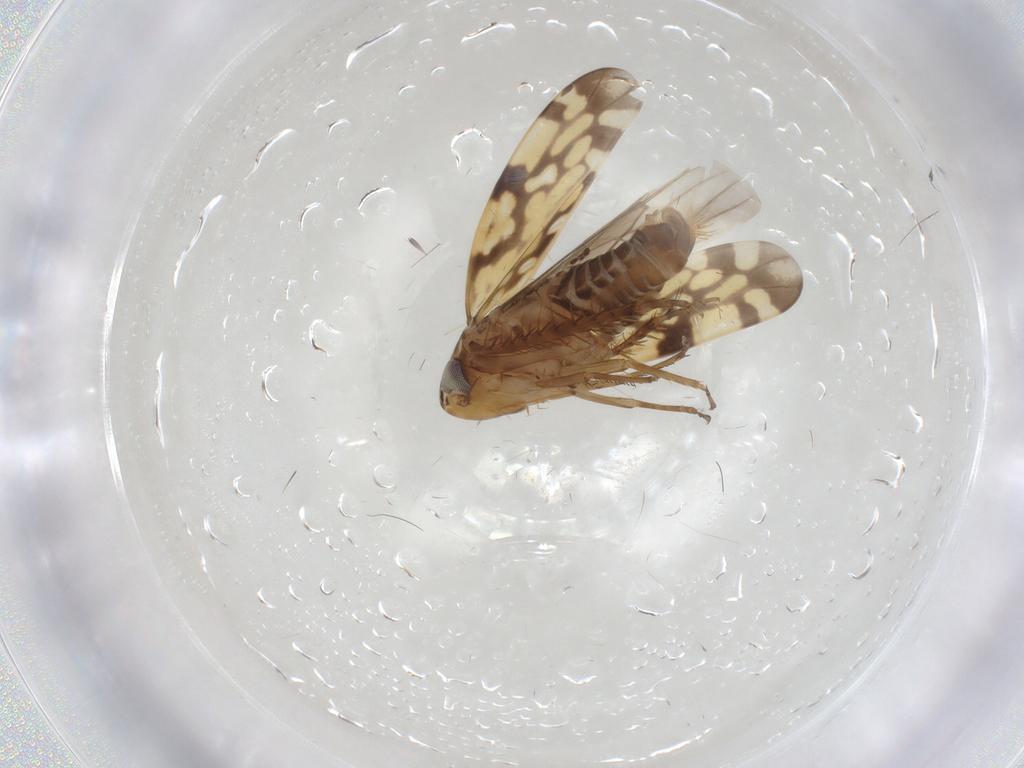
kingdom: Animalia
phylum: Arthropoda
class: Insecta
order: Hemiptera
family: Cicadellidae
